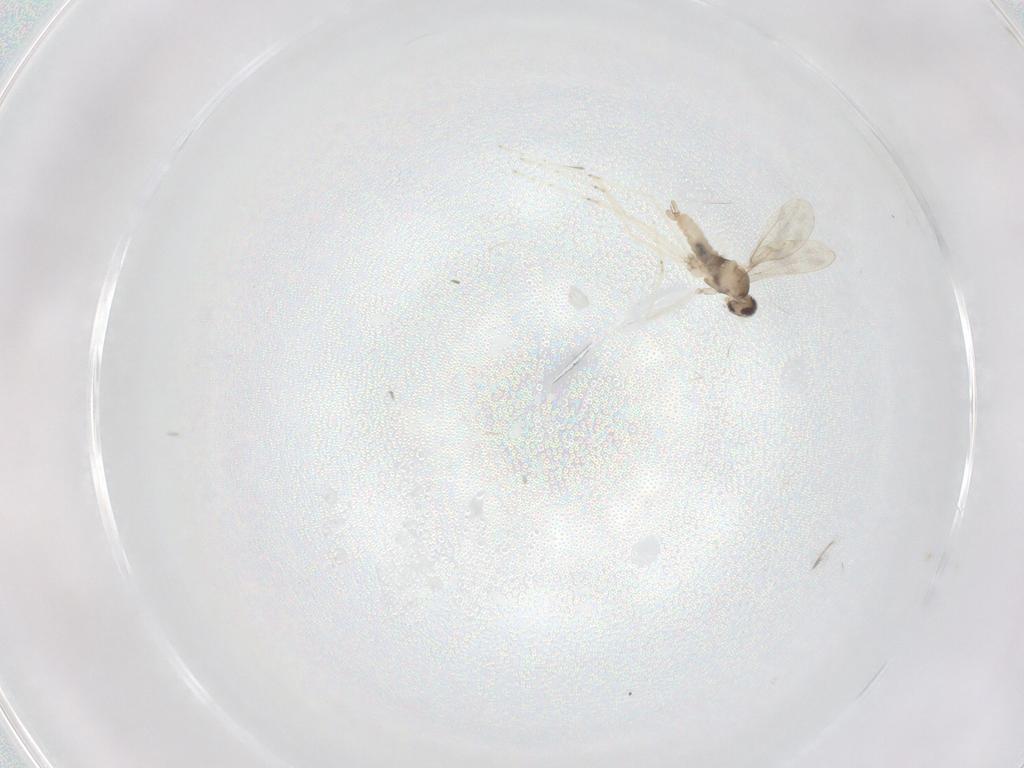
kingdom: Animalia
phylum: Arthropoda
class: Insecta
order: Diptera
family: Cecidomyiidae
